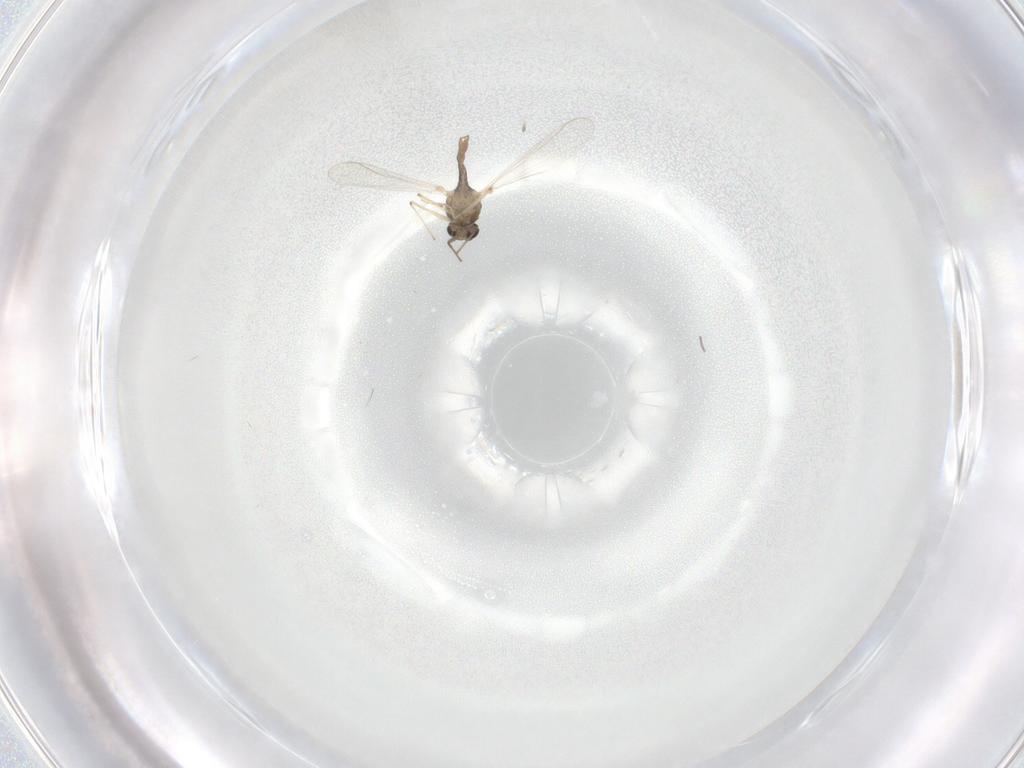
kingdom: Animalia
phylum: Arthropoda
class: Insecta
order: Diptera
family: Chironomidae
